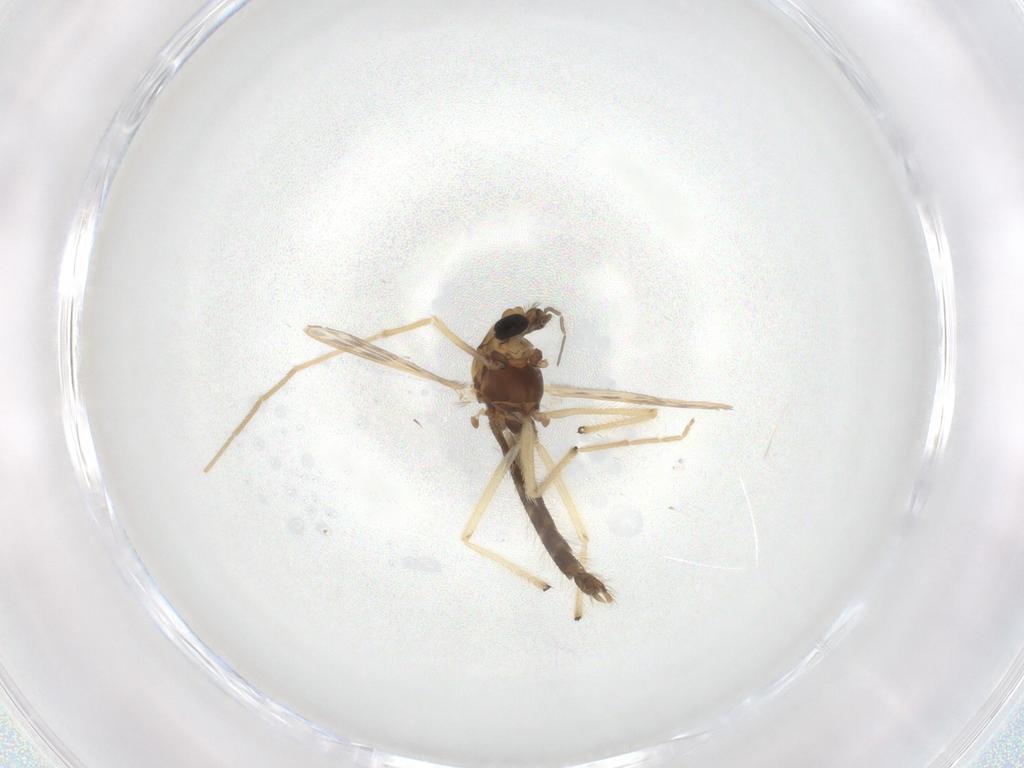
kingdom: Animalia
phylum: Arthropoda
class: Insecta
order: Diptera
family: Chironomidae
